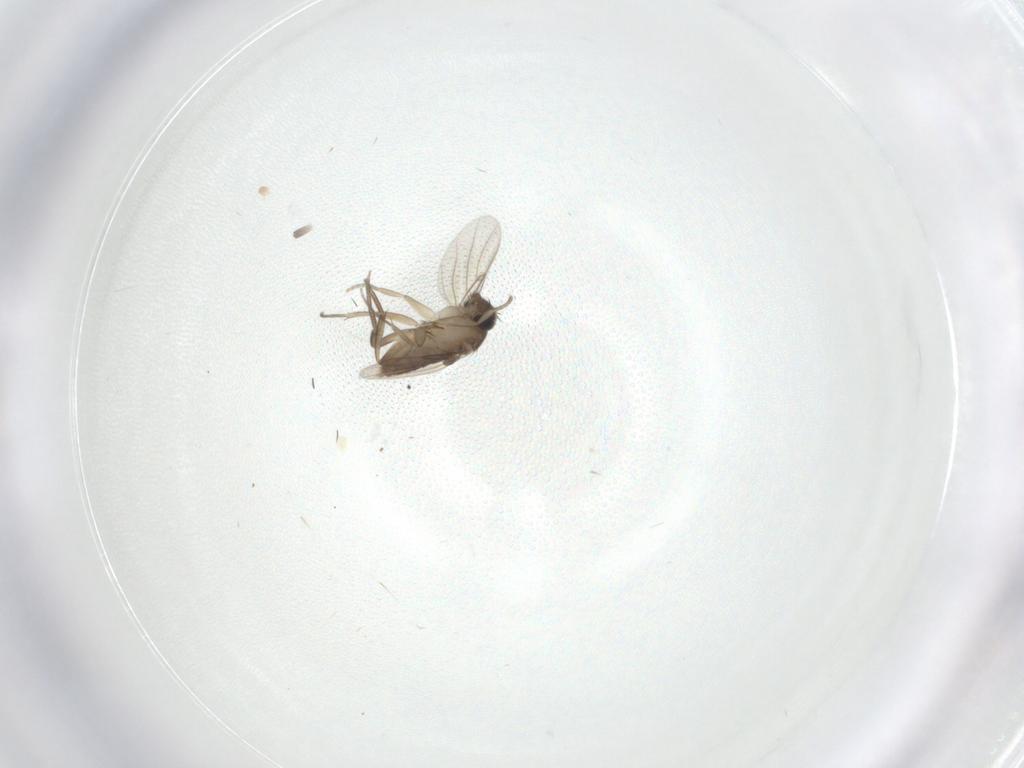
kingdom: Animalia
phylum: Arthropoda
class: Insecta
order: Diptera
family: Phoridae
